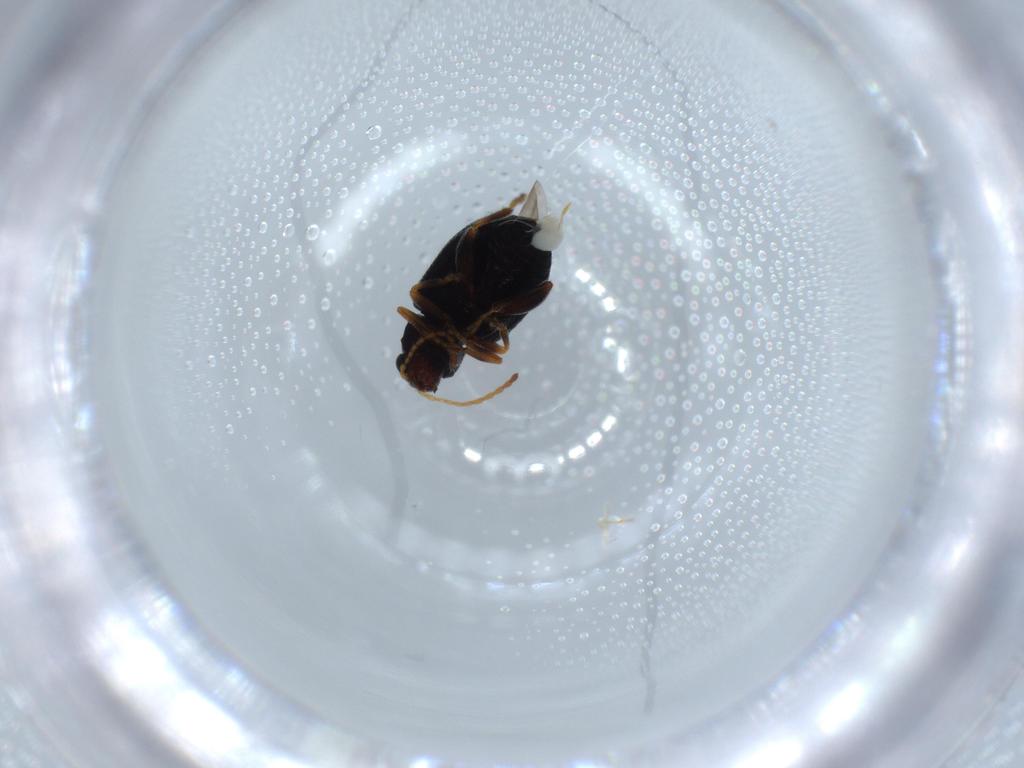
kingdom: Animalia
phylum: Arthropoda
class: Insecta
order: Coleoptera
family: Chrysomelidae
